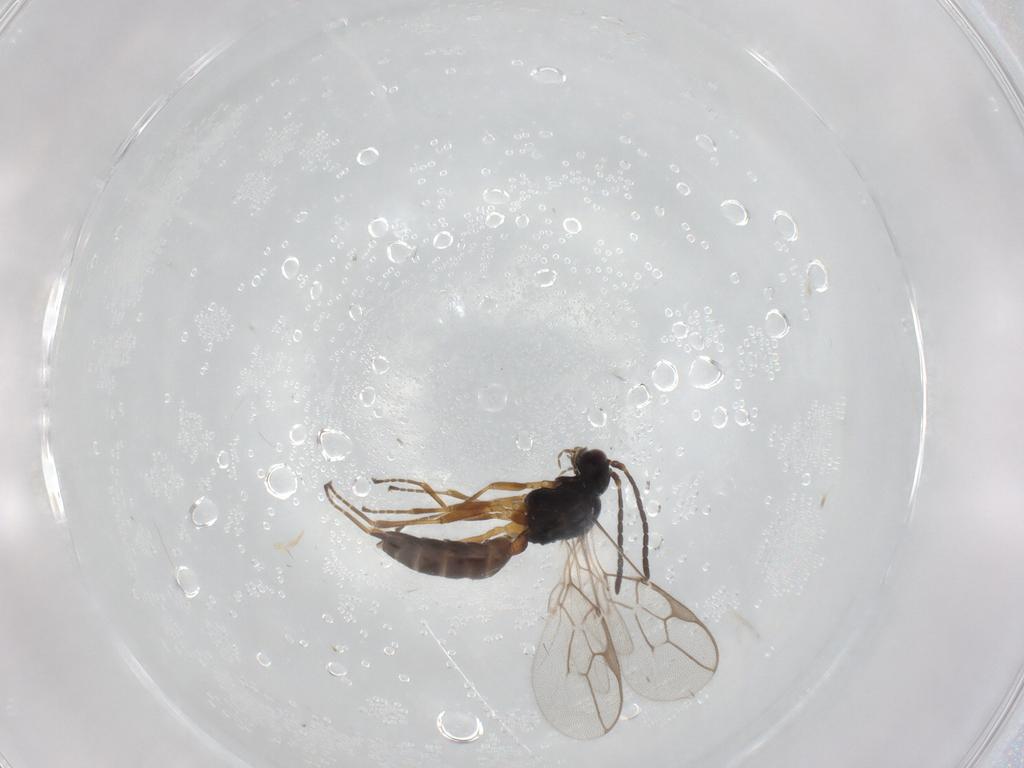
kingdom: Animalia
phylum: Arthropoda
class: Insecta
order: Hymenoptera
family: Braconidae
